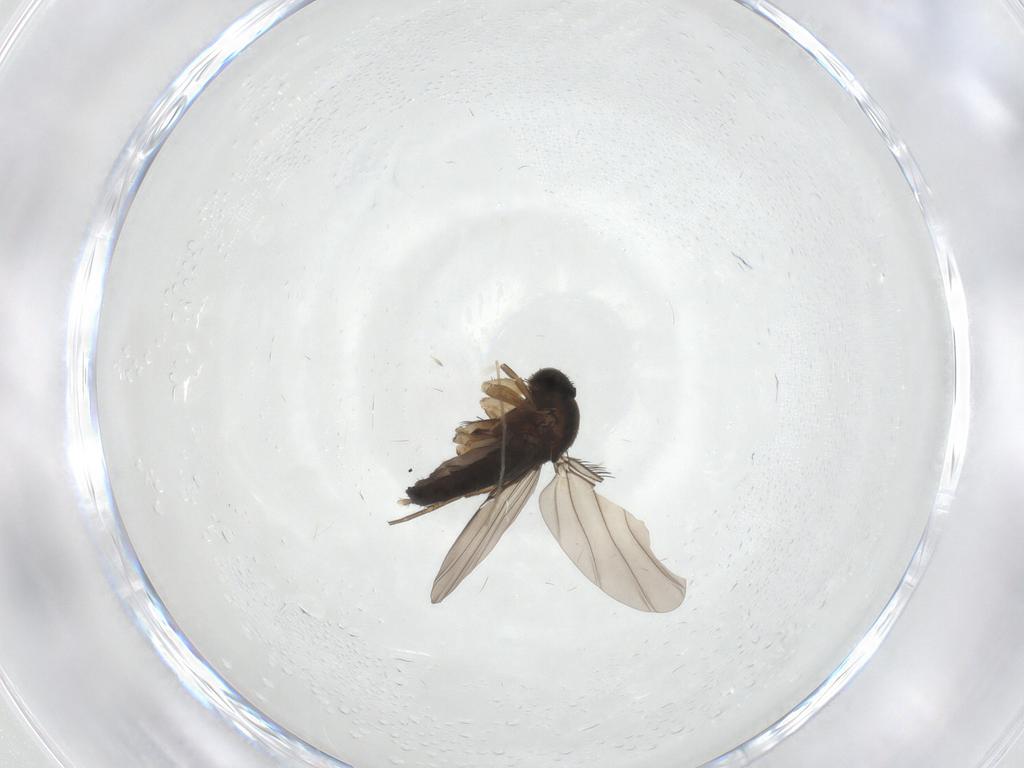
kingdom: Animalia
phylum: Arthropoda
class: Insecta
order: Diptera
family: Phoridae
